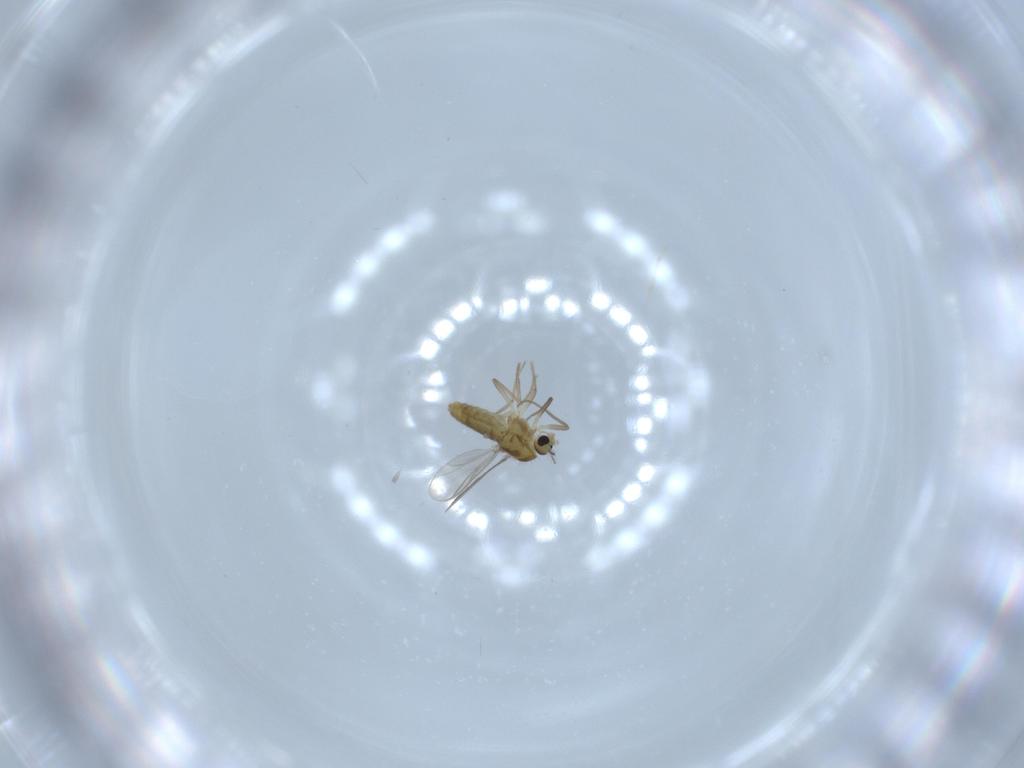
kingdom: Animalia
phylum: Arthropoda
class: Insecta
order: Diptera
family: Chironomidae
